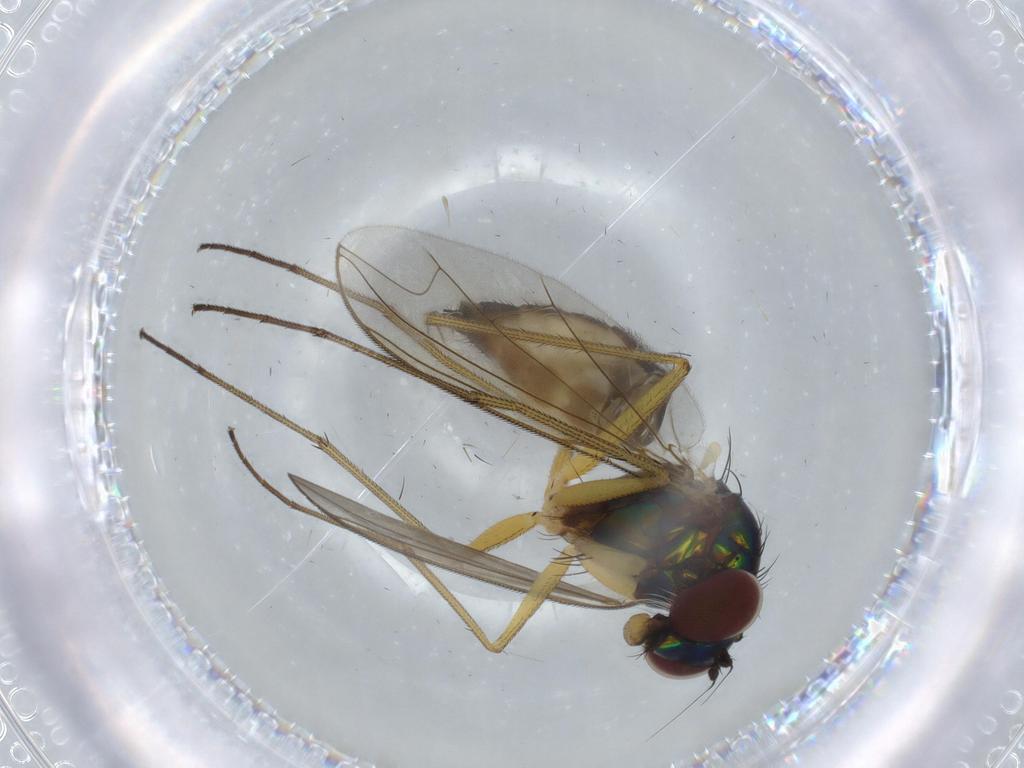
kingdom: Animalia
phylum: Arthropoda
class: Insecta
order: Diptera
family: Dolichopodidae
